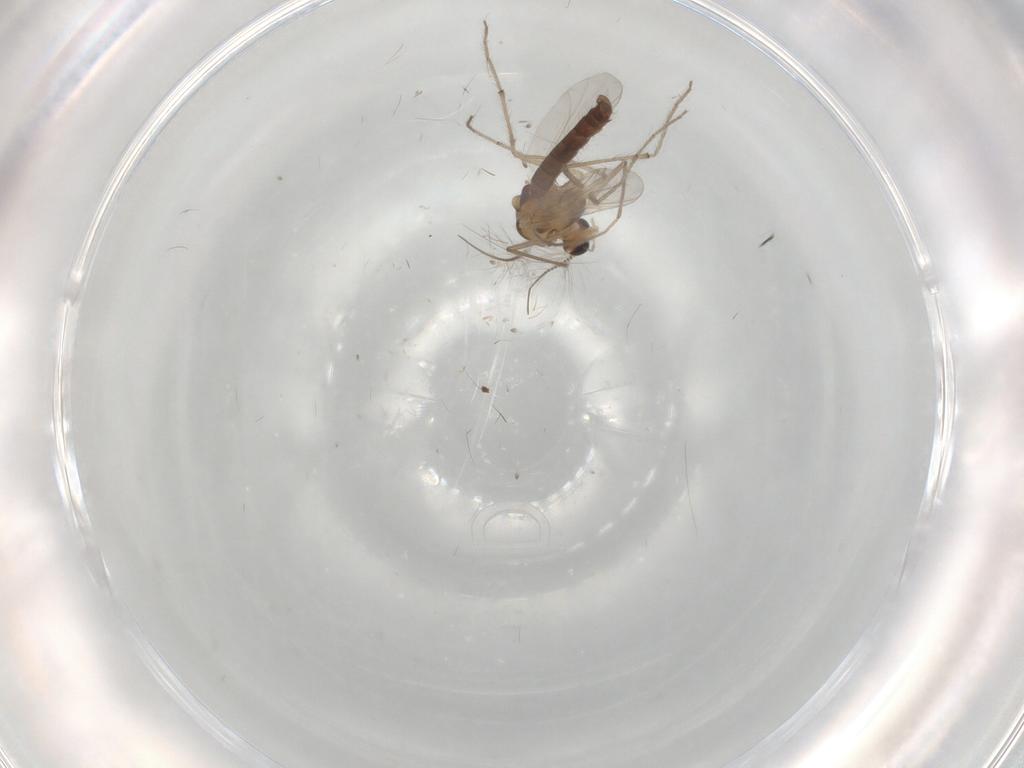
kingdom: Animalia
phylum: Arthropoda
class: Insecta
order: Diptera
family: Chironomidae
